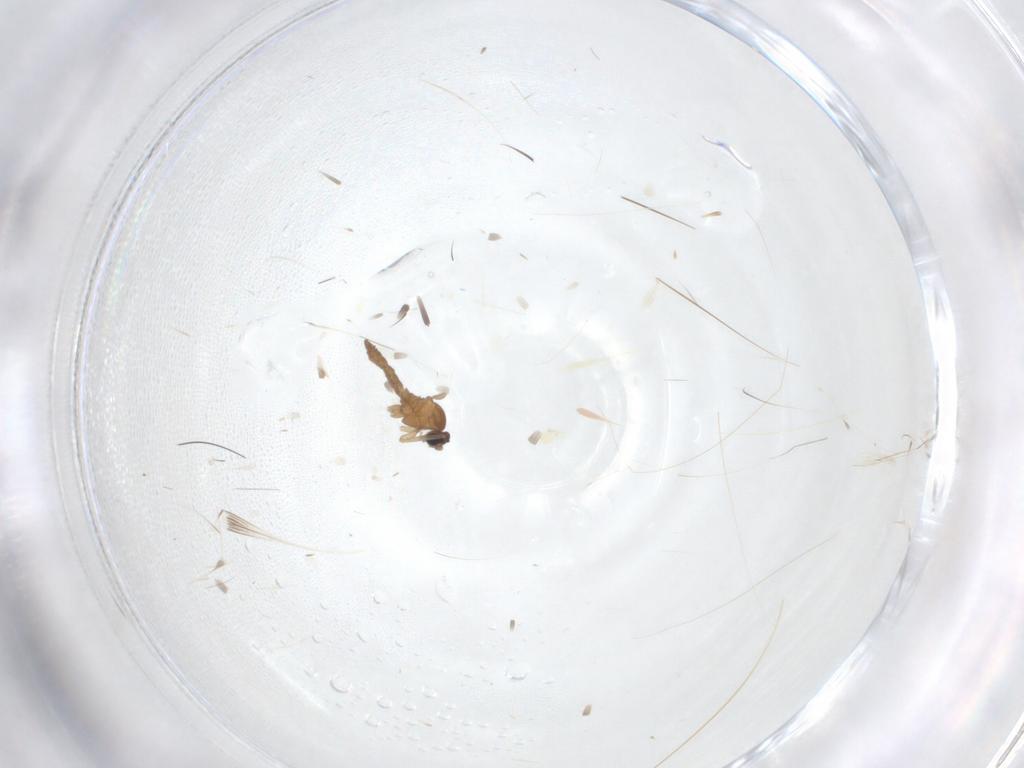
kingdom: Animalia
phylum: Arthropoda
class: Insecta
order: Diptera
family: Cecidomyiidae
